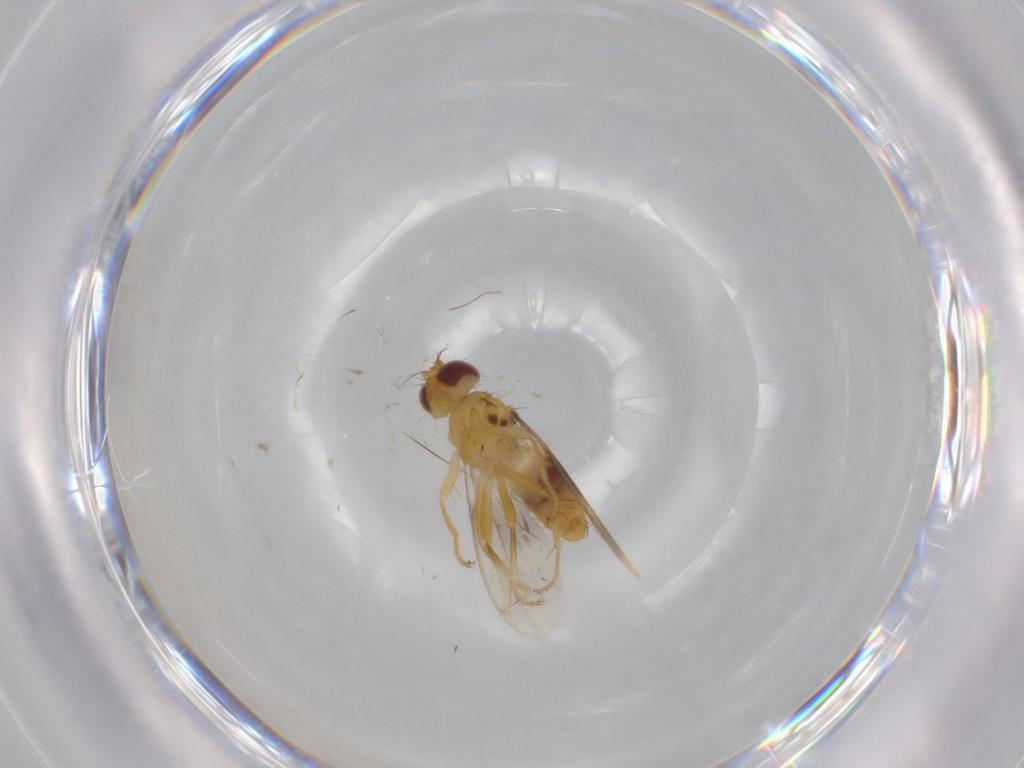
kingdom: Animalia
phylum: Arthropoda
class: Insecta
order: Diptera
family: Periscelididae
